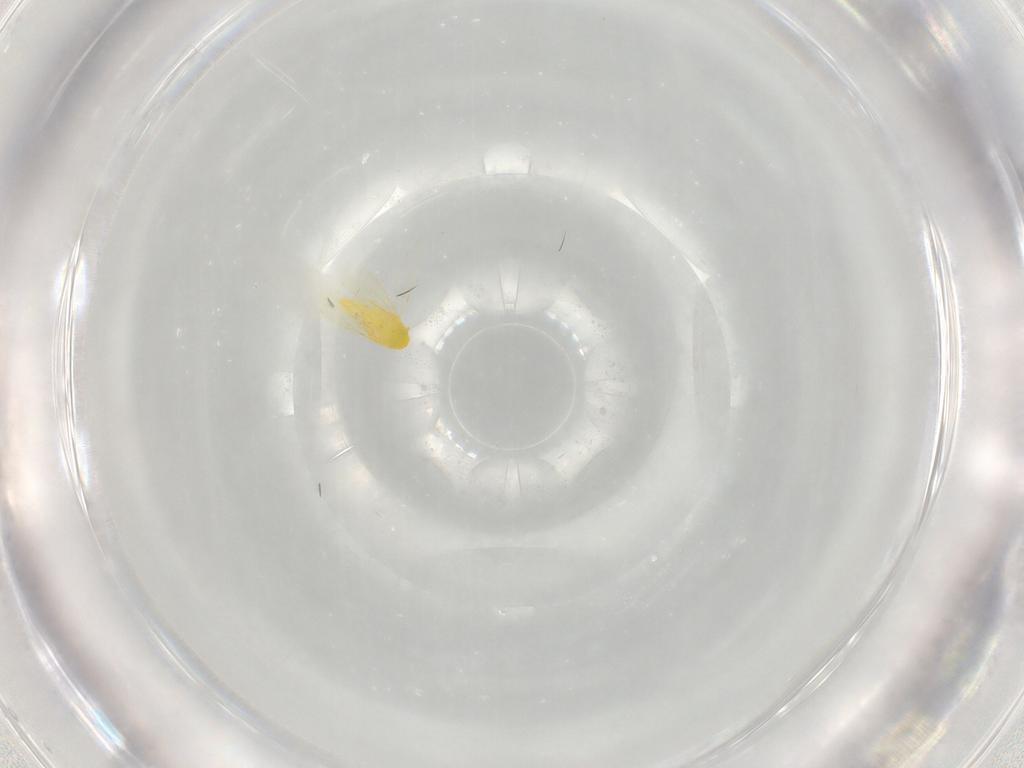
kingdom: Animalia
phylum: Arthropoda
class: Insecta
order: Hemiptera
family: Aleyrodidae
